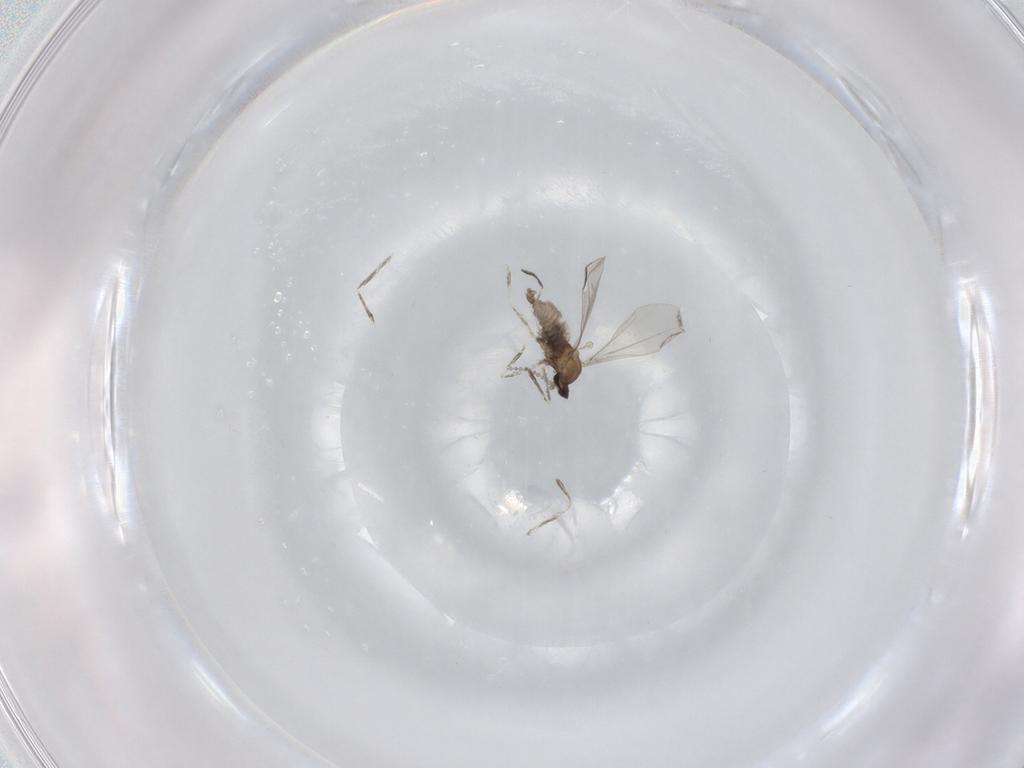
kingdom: Animalia
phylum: Arthropoda
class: Insecta
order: Diptera
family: Cecidomyiidae
